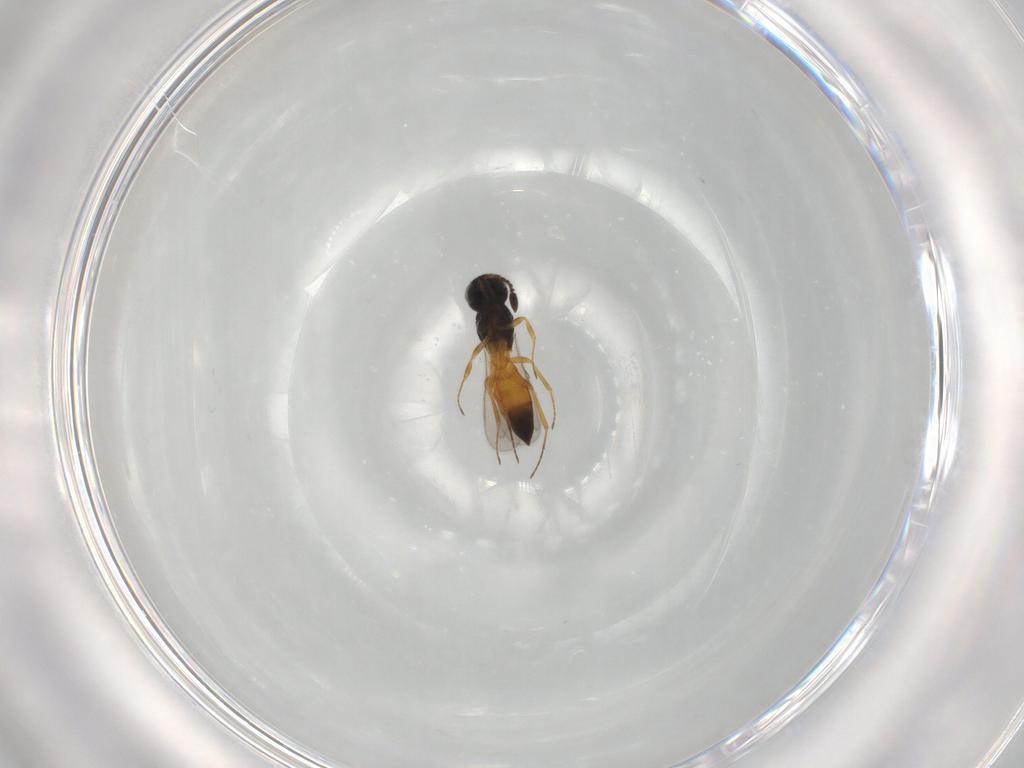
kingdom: Animalia
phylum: Arthropoda
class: Insecta
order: Hymenoptera
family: Scelionidae
